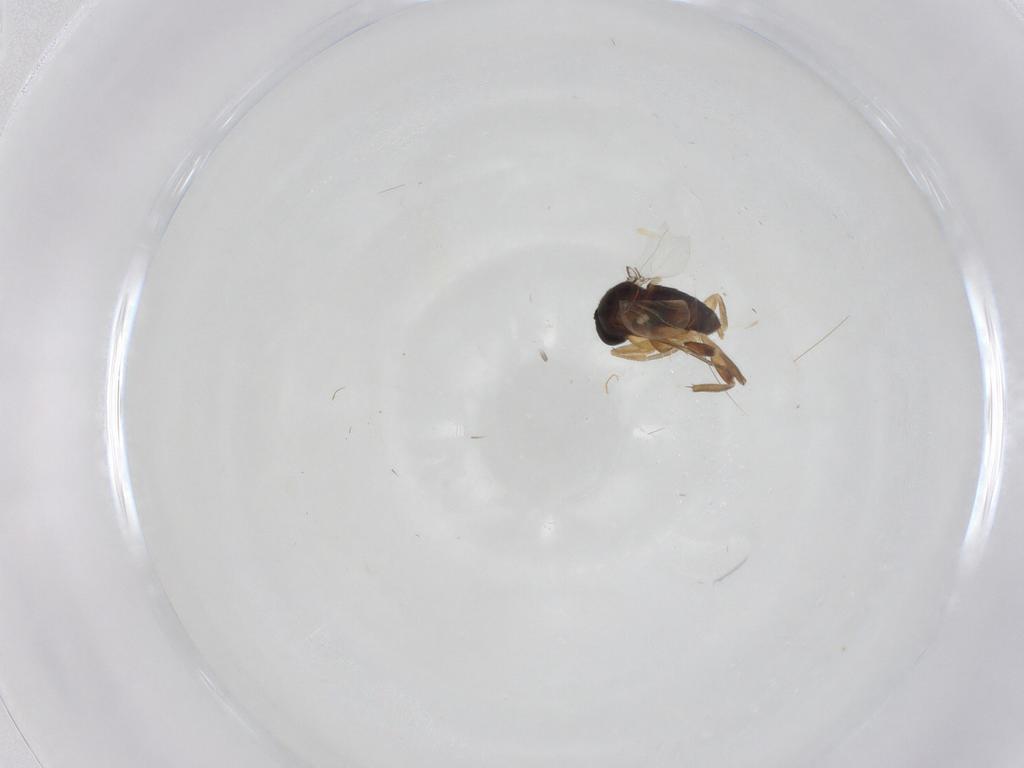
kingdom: Animalia
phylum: Arthropoda
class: Insecta
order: Diptera
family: Phoridae
